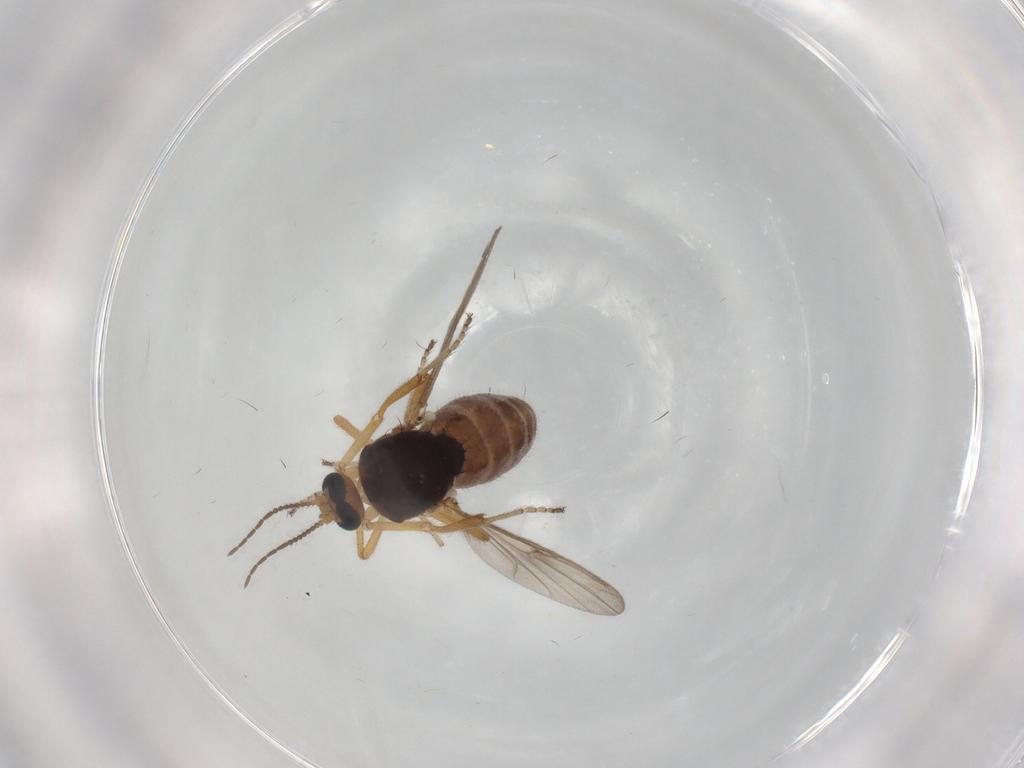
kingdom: Animalia
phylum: Arthropoda
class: Insecta
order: Diptera
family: Ceratopogonidae
